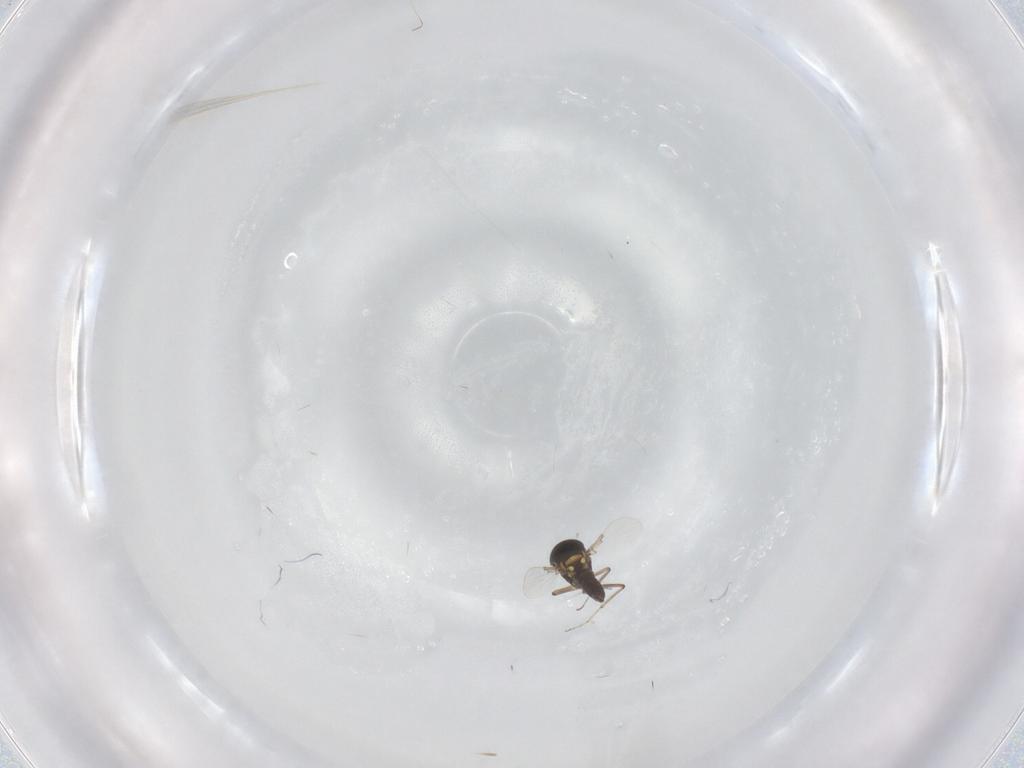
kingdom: Animalia
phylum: Arthropoda
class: Insecta
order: Diptera
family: Ceratopogonidae
